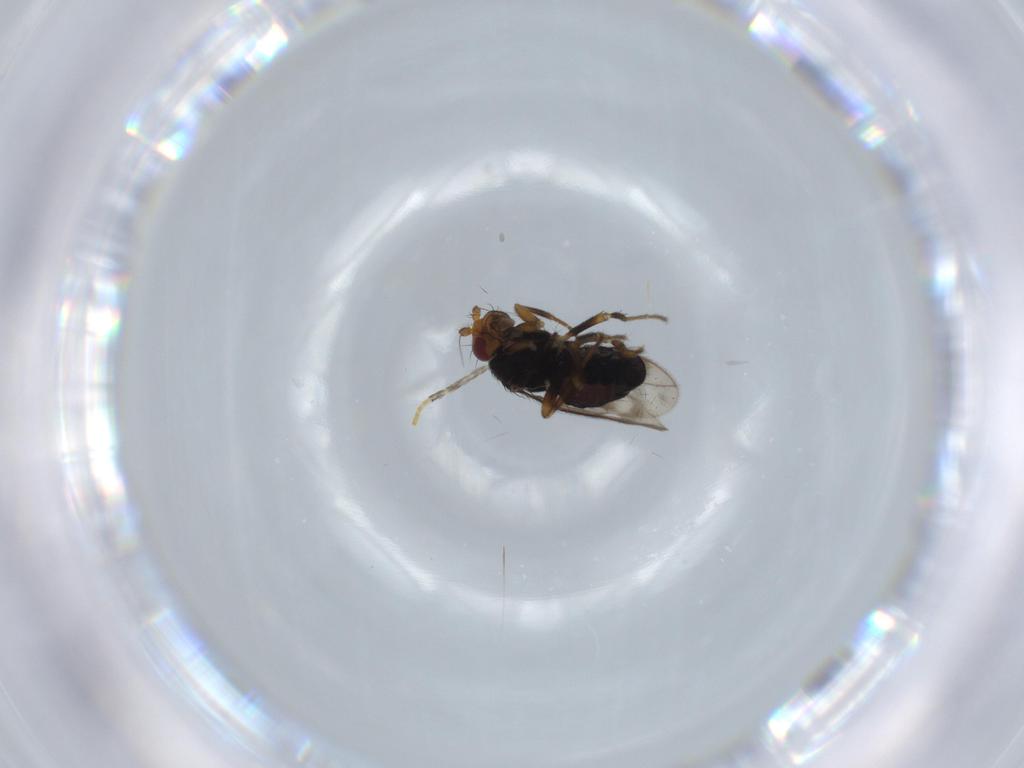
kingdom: Animalia
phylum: Arthropoda
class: Insecta
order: Diptera
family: Sphaeroceridae
